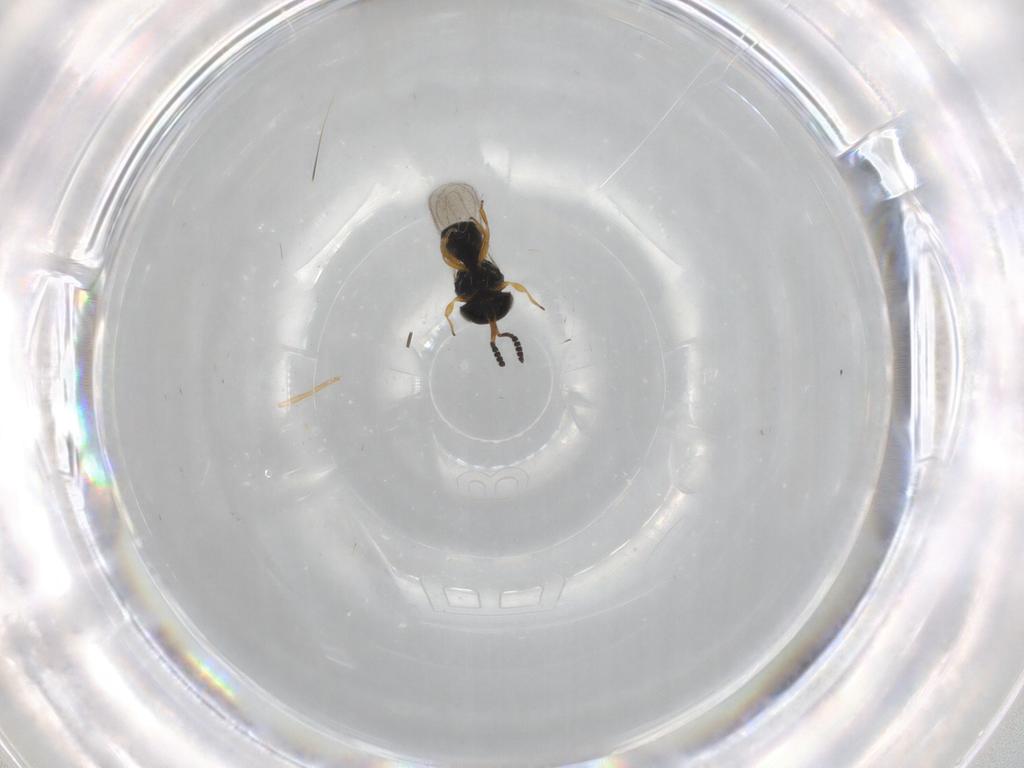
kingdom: Animalia
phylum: Arthropoda
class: Insecta
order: Hymenoptera
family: Scelionidae
